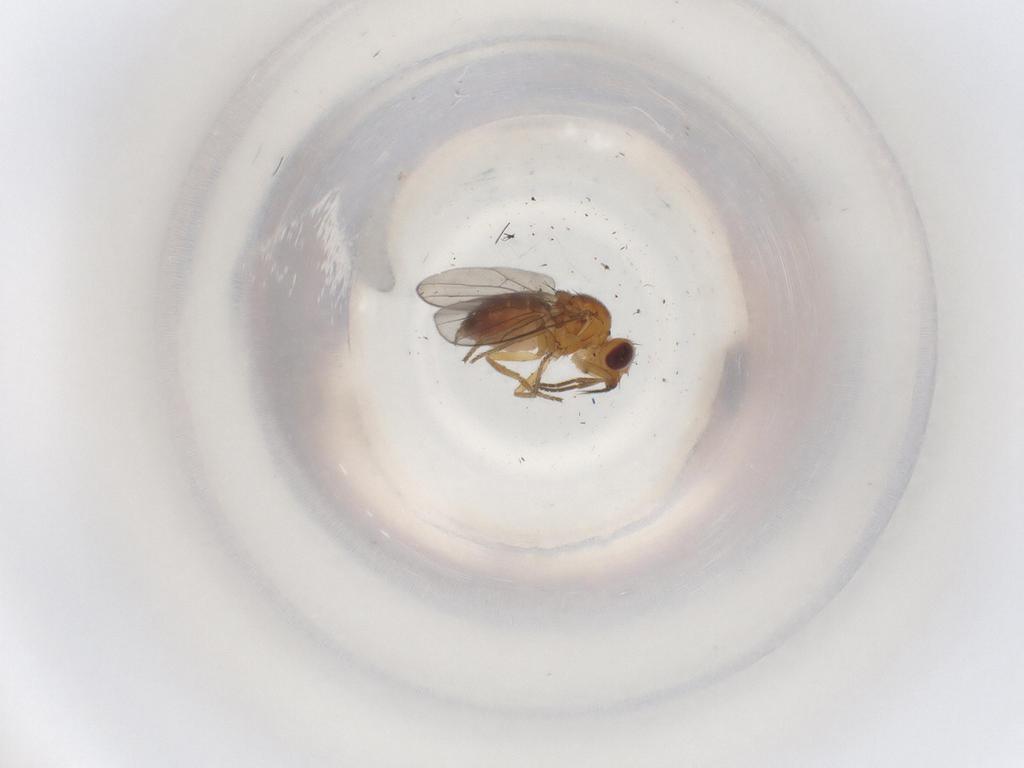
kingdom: Animalia
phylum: Arthropoda
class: Insecta
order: Diptera
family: Chloropidae
